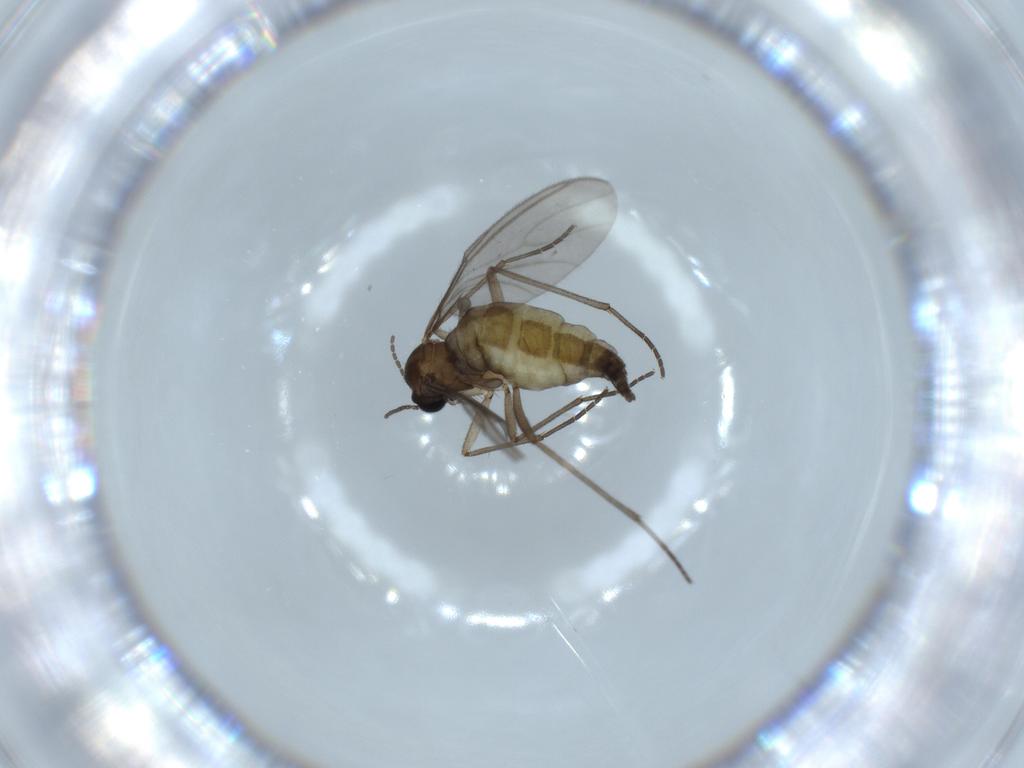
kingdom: Animalia
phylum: Arthropoda
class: Insecta
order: Diptera
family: Sciaridae
